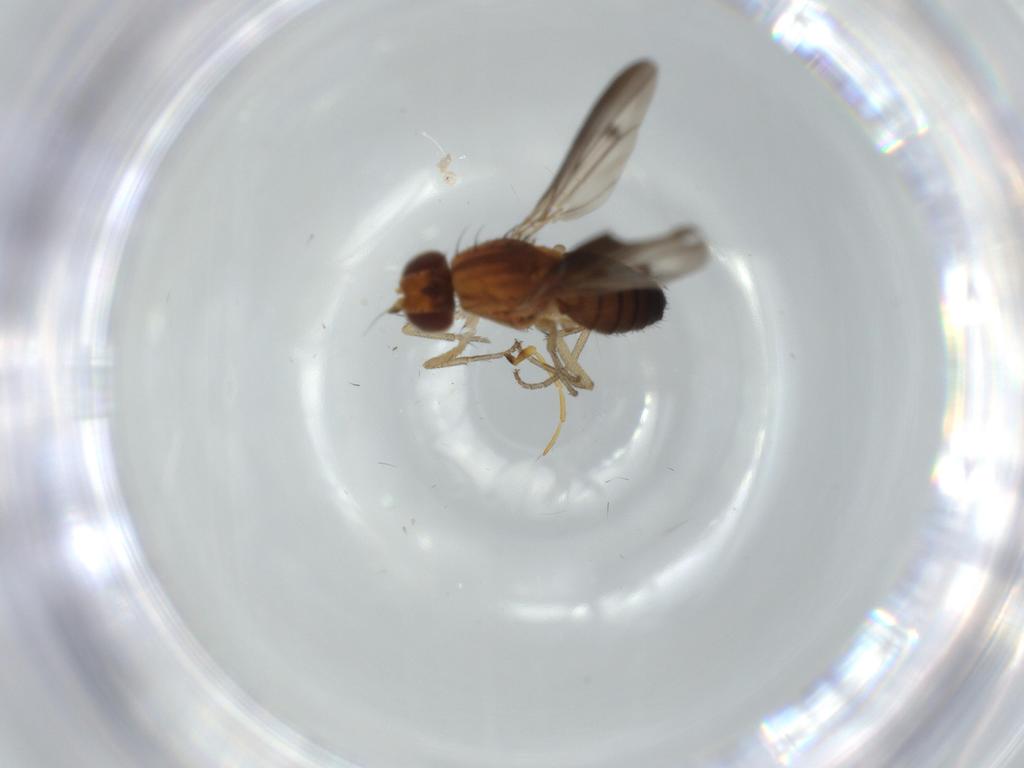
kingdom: Animalia
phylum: Arthropoda
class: Insecta
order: Diptera
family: Heleomyzidae
